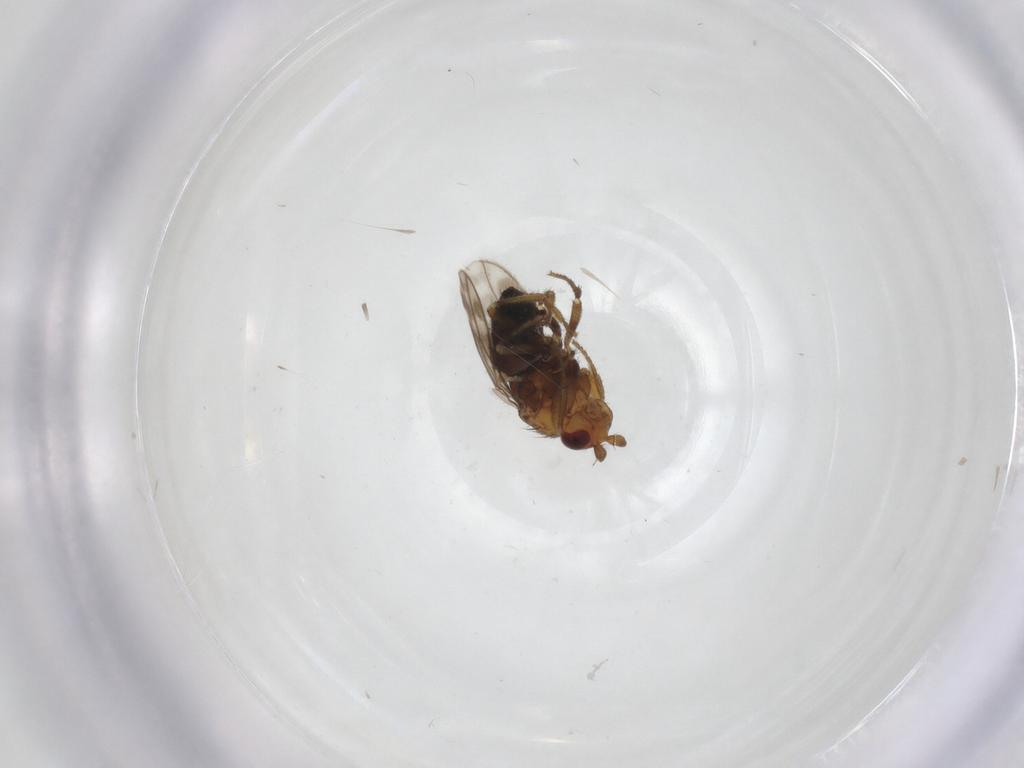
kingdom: Animalia
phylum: Arthropoda
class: Insecta
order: Diptera
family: Sphaeroceridae
